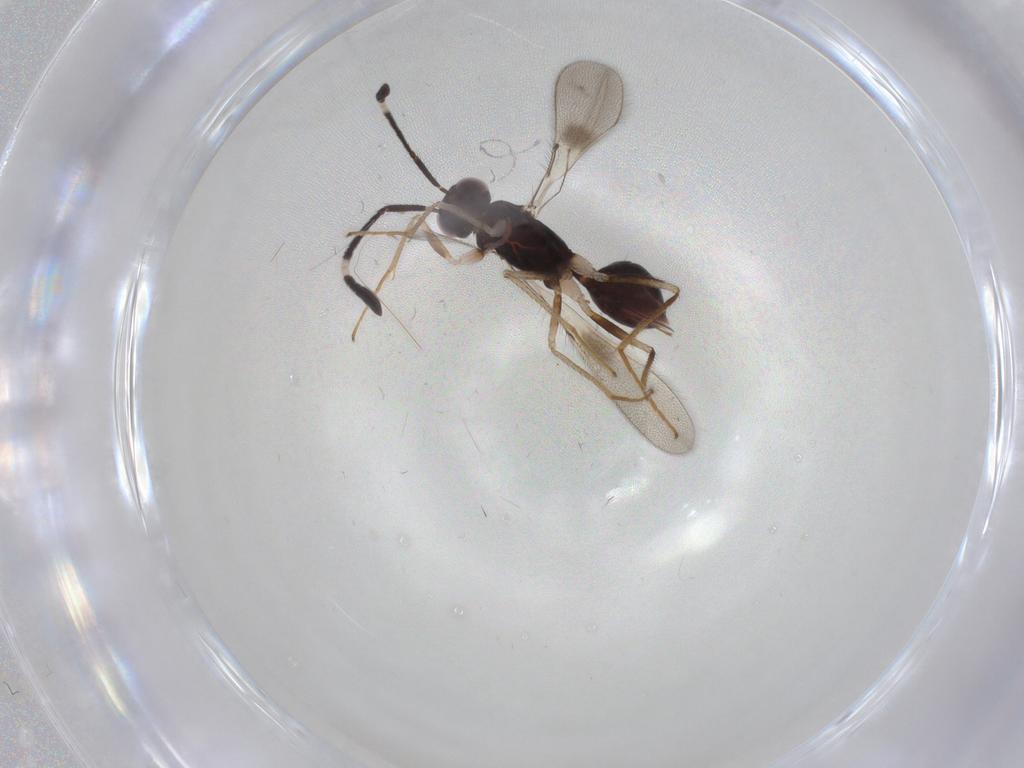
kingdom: Animalia
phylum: Arthropoda
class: Insecta
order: Hymenoptera
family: Mymaridae
